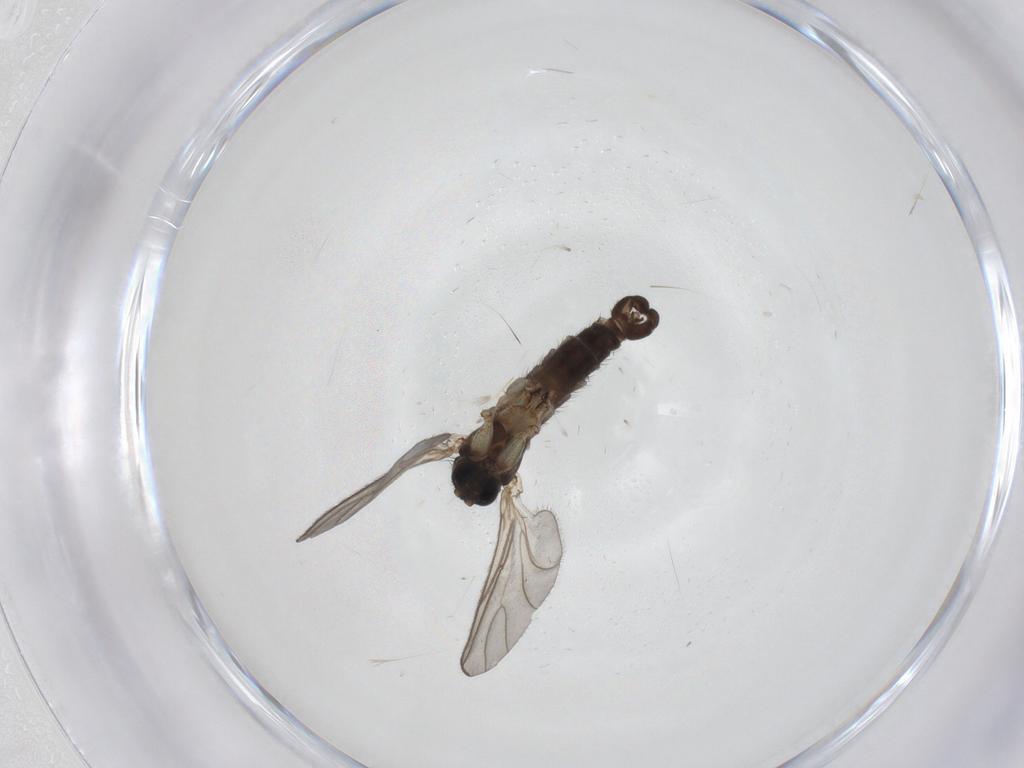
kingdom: Animalia
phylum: Arthropoda
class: Insecta
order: Diptera
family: Sciaridae
